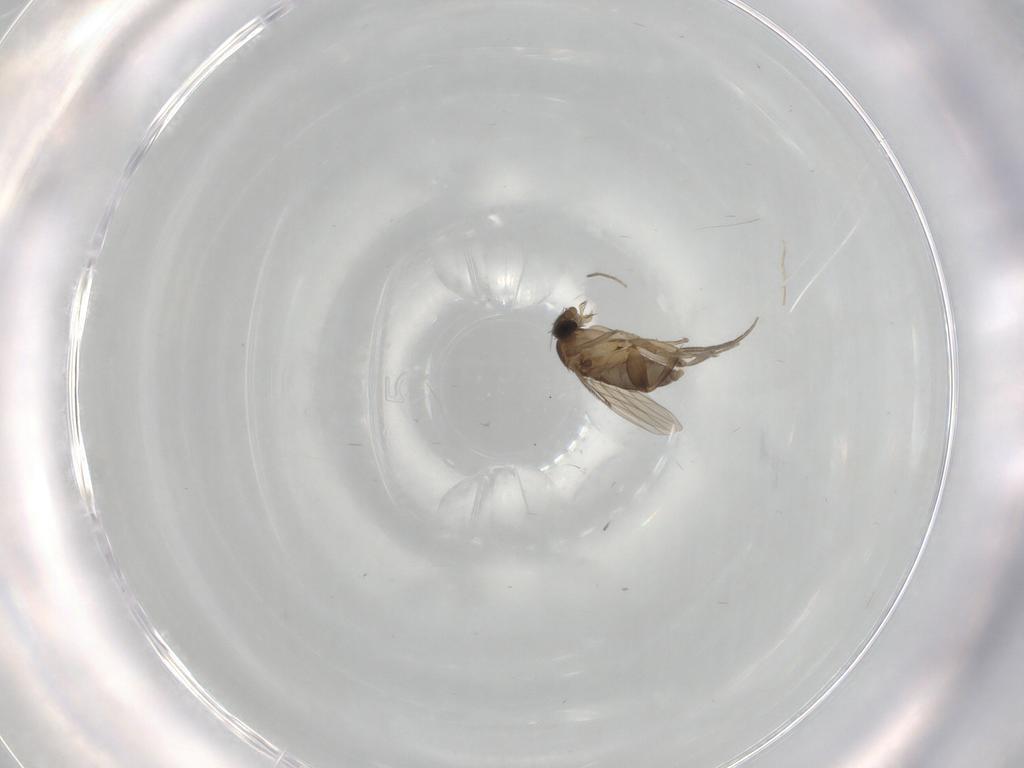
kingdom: Animalia
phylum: Arthropoda
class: Insecta
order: Diptera
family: Phoridae
